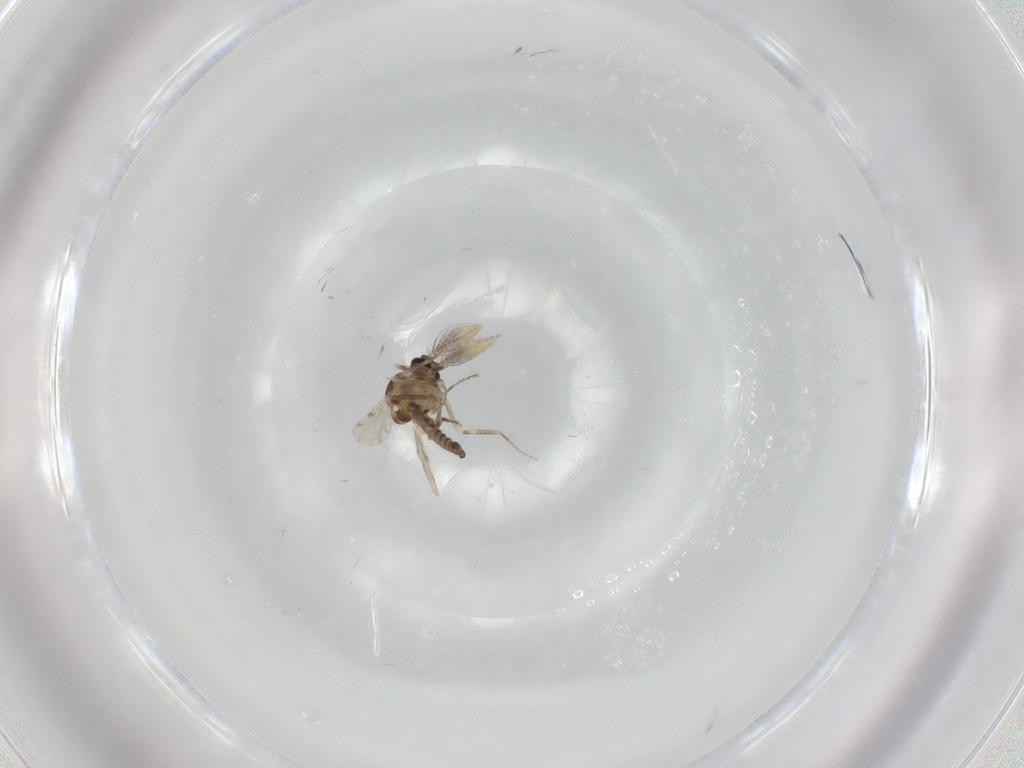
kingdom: Animalia
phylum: Arthropoda
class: Insecta
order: Diptera
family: Ceratopogonidae
